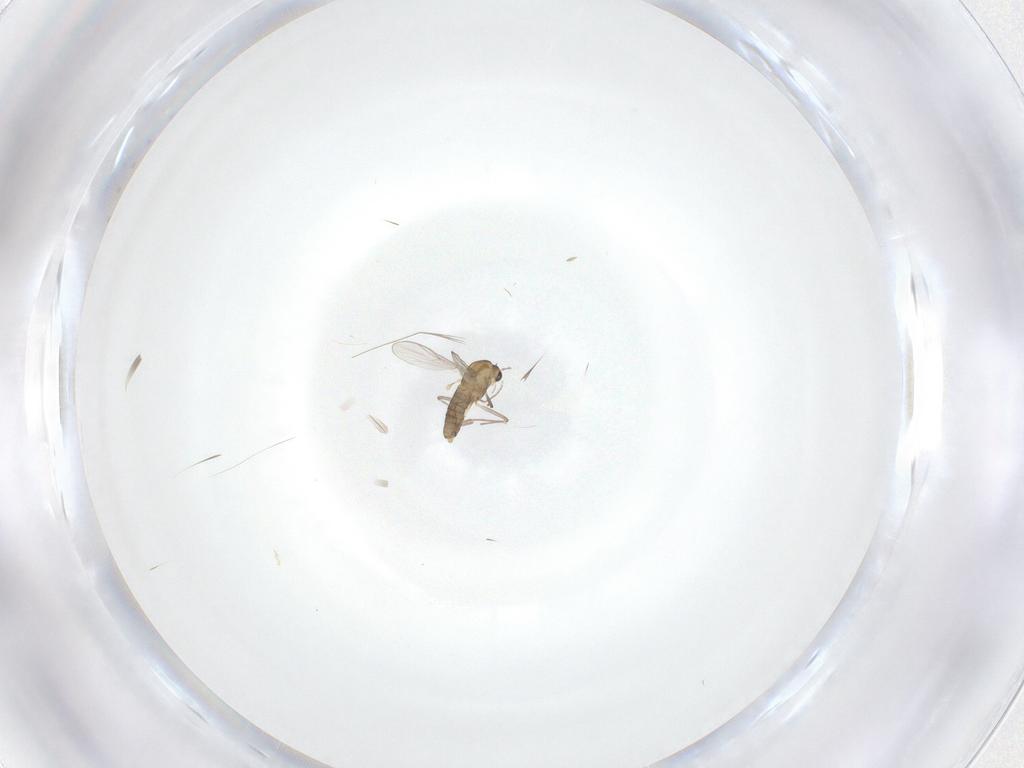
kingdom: Animalia
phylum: Arthropoda
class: Insecta
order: Diptera
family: Chironomidae
